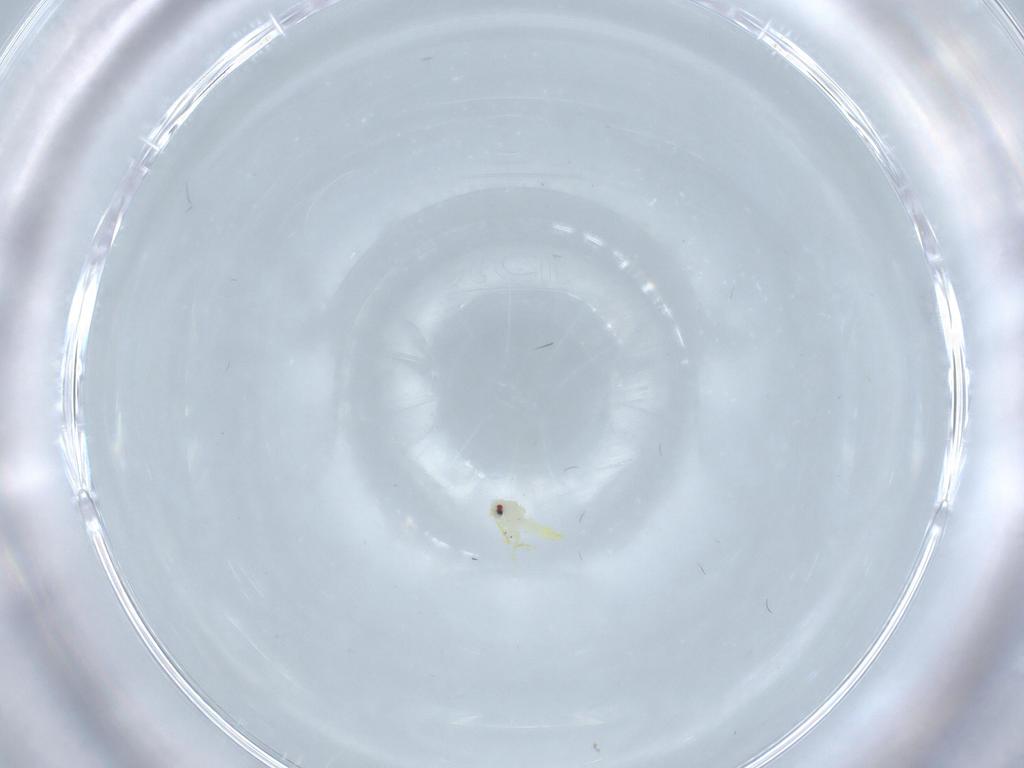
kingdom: Animalia
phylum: Arthropoda
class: Insecta
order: Hemiptera
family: Aleyrodidae
